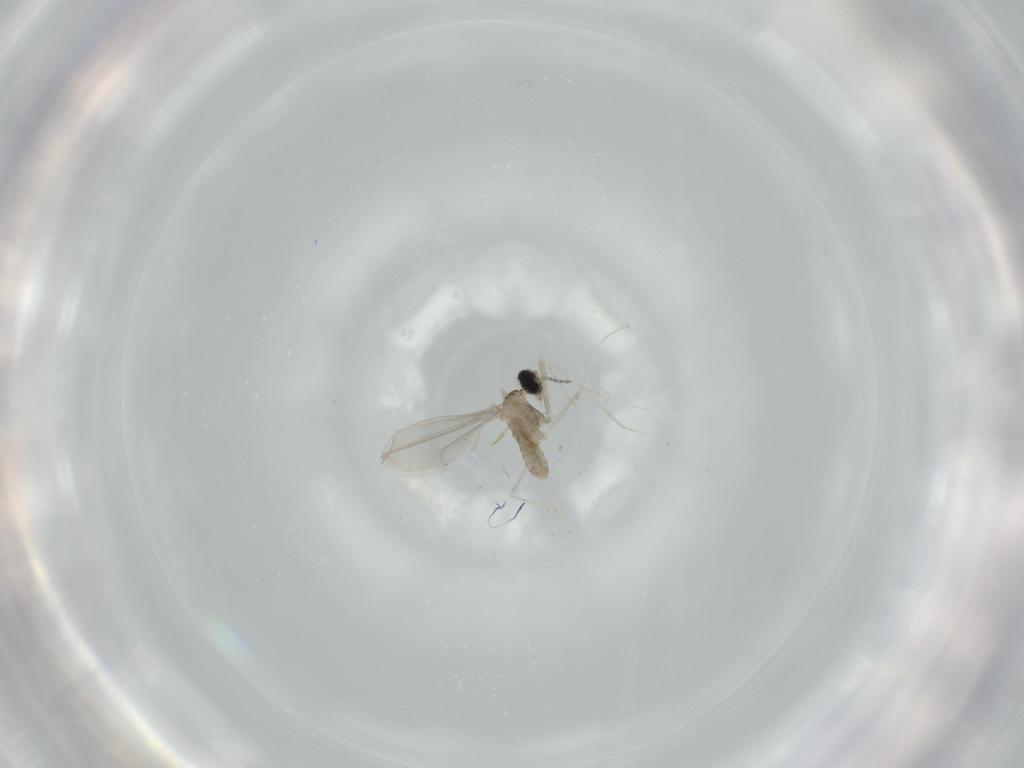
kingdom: Animalia
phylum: Arthropoda
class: Insecta
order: Diptera
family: Cecidomyiidae
